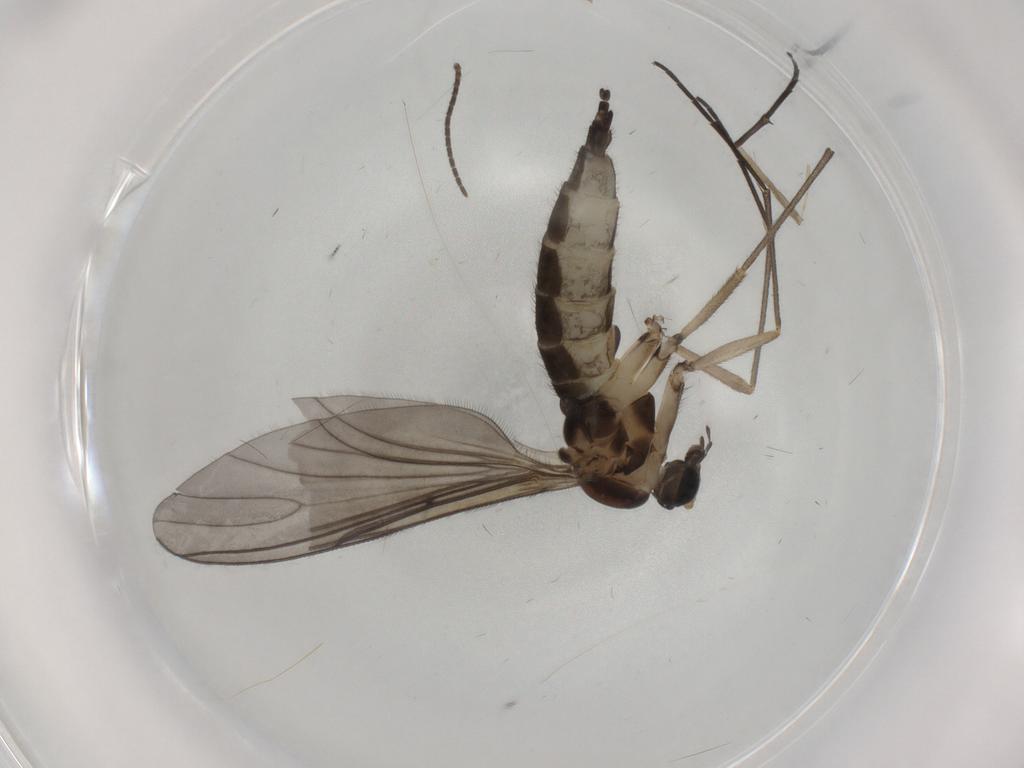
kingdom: Animalia
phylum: Arthropoda
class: Insecta
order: Diptera
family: Sciaridae
